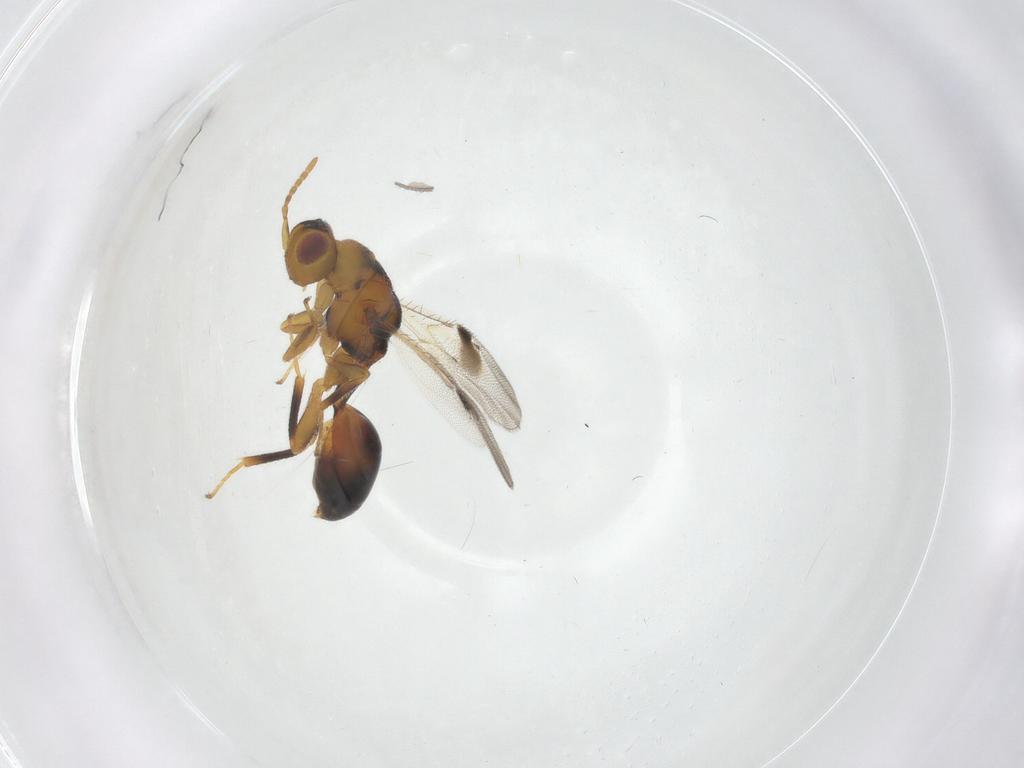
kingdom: Animalia
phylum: Arthropoda
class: Insecta
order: Hymenoptera
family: Eurytomidae
